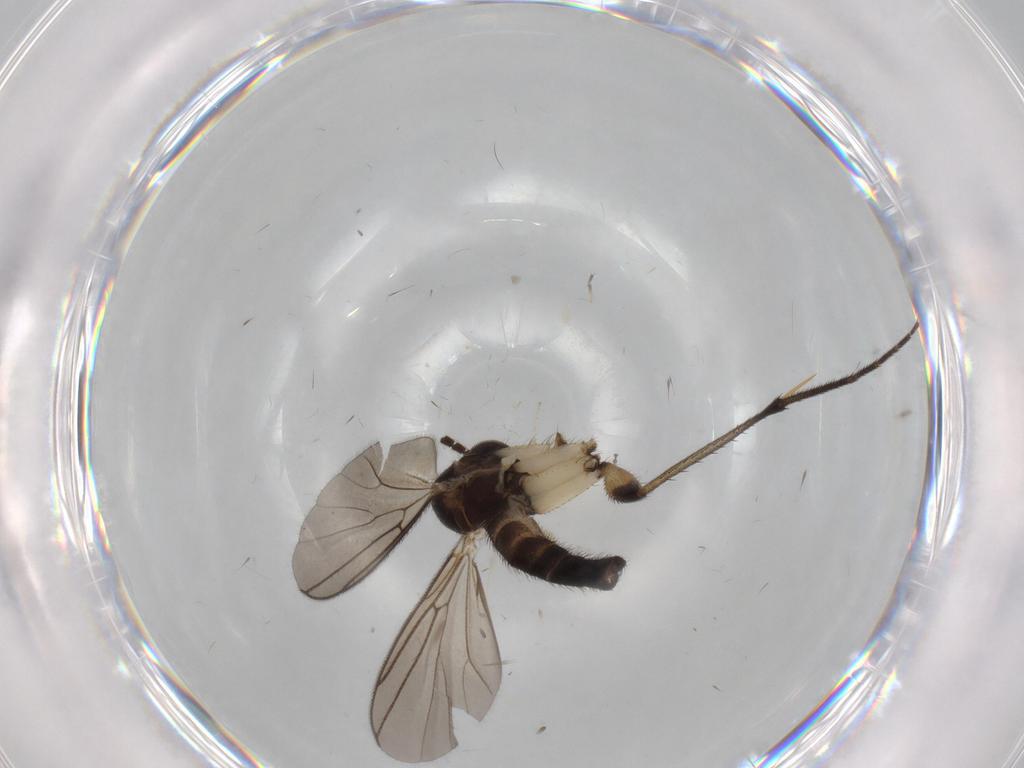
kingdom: Animalia
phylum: Arthropoda
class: Insecta
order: Diptera
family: Mycetophilidae
